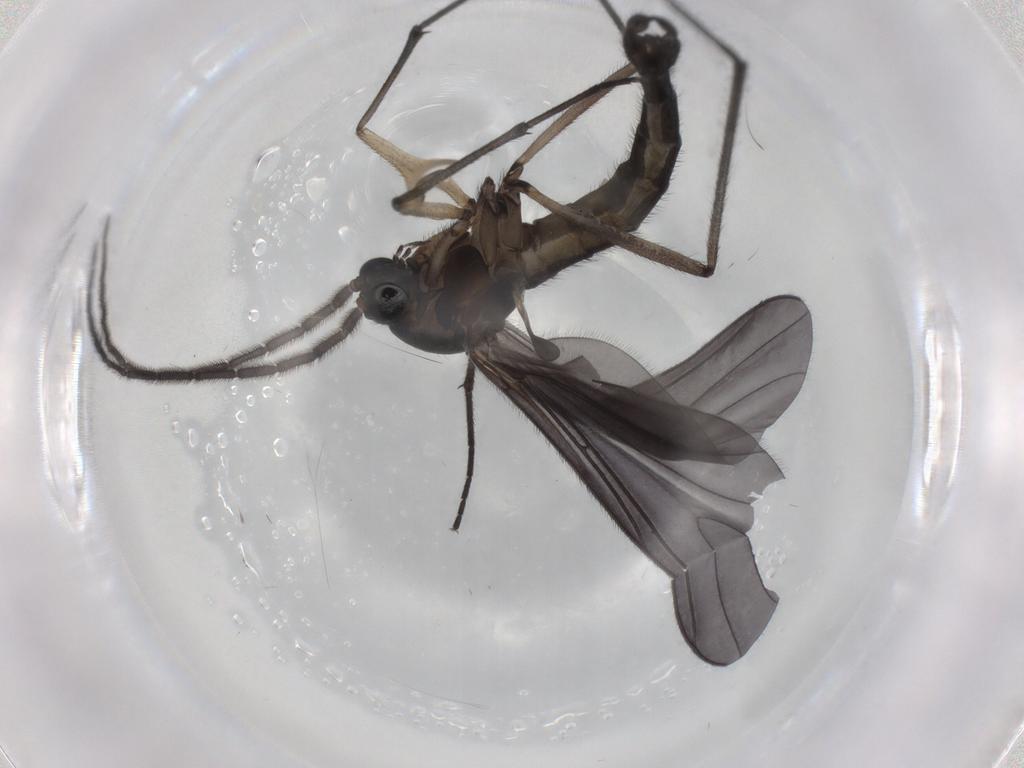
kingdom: Animalia
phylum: Arthropoda
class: Insecta
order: Diptera
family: Sciaridae
